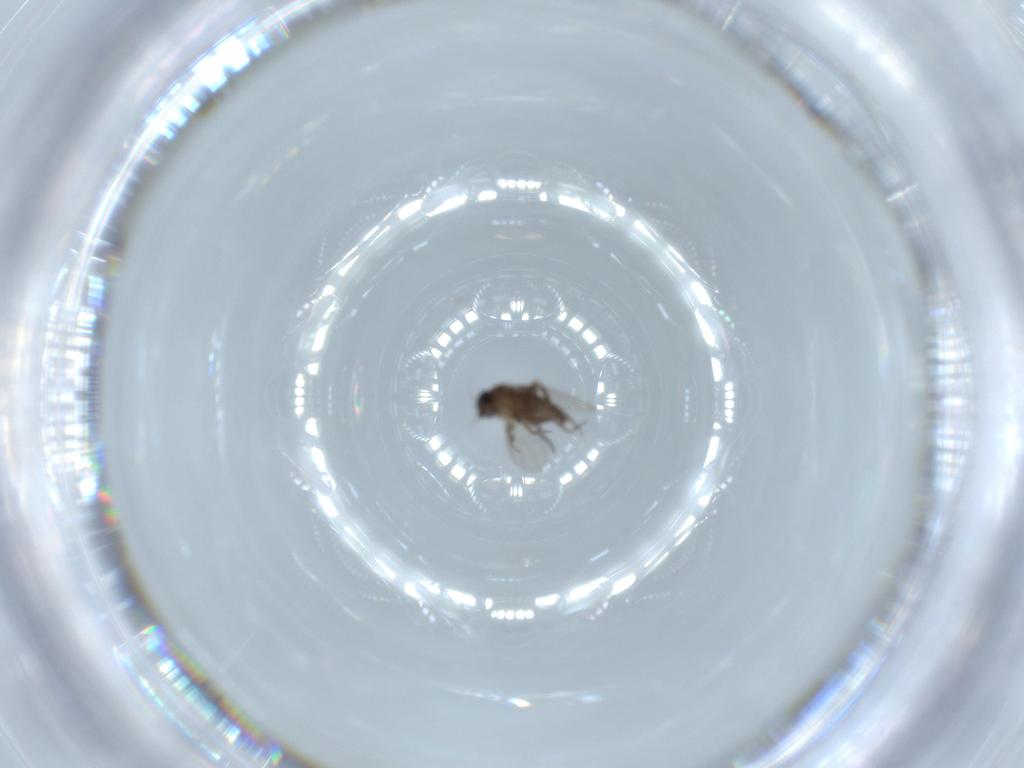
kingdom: Animalia
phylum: Arthropoda
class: Insecta
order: Diptera
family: Phoridae
